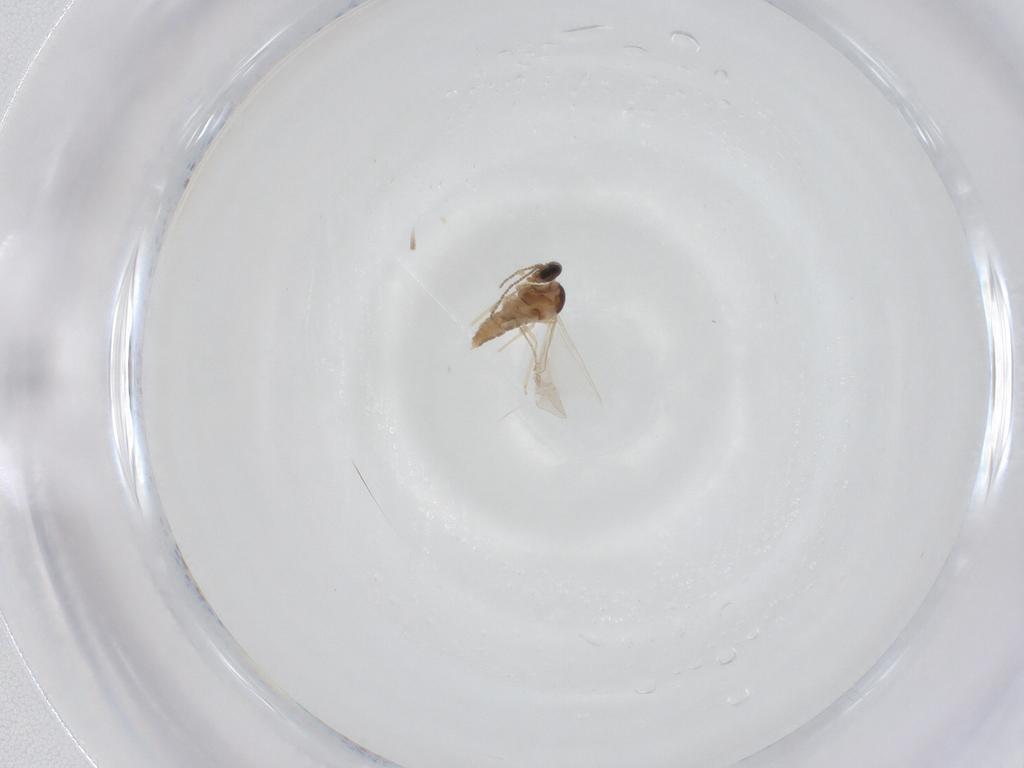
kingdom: Animalia
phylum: Arthropoda
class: Insecta
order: Diptera
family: Cecidomyiidae
